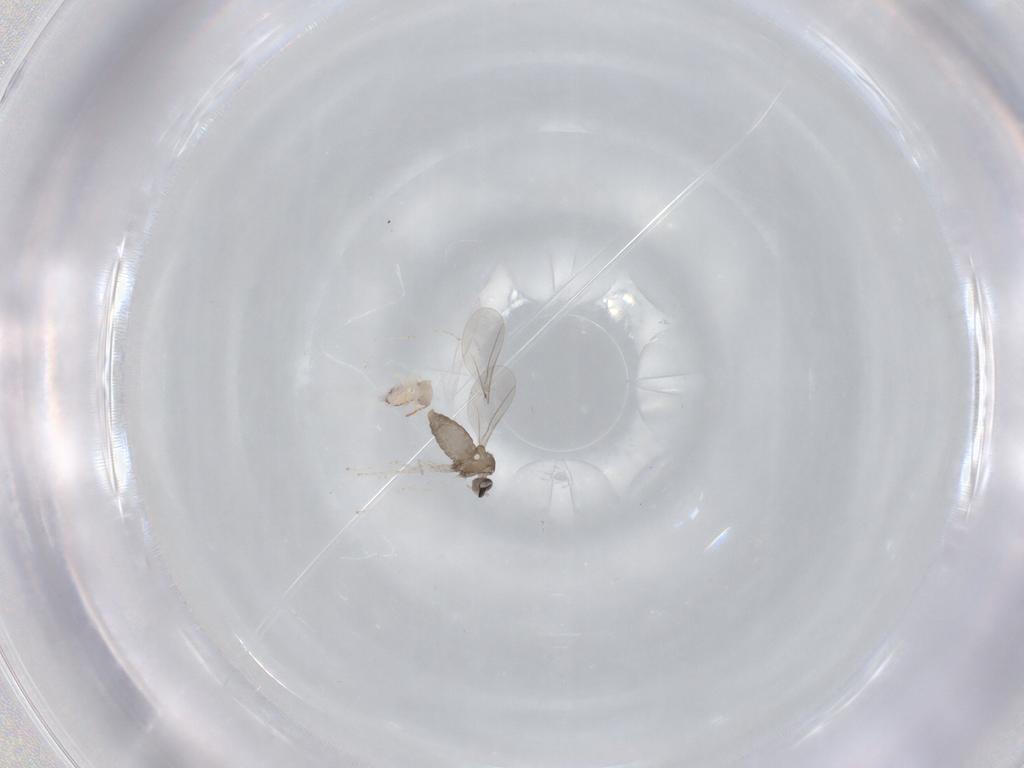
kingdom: Animalia
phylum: Arthropoda
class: Insecta
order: Diptera
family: Cecidomyiidae
